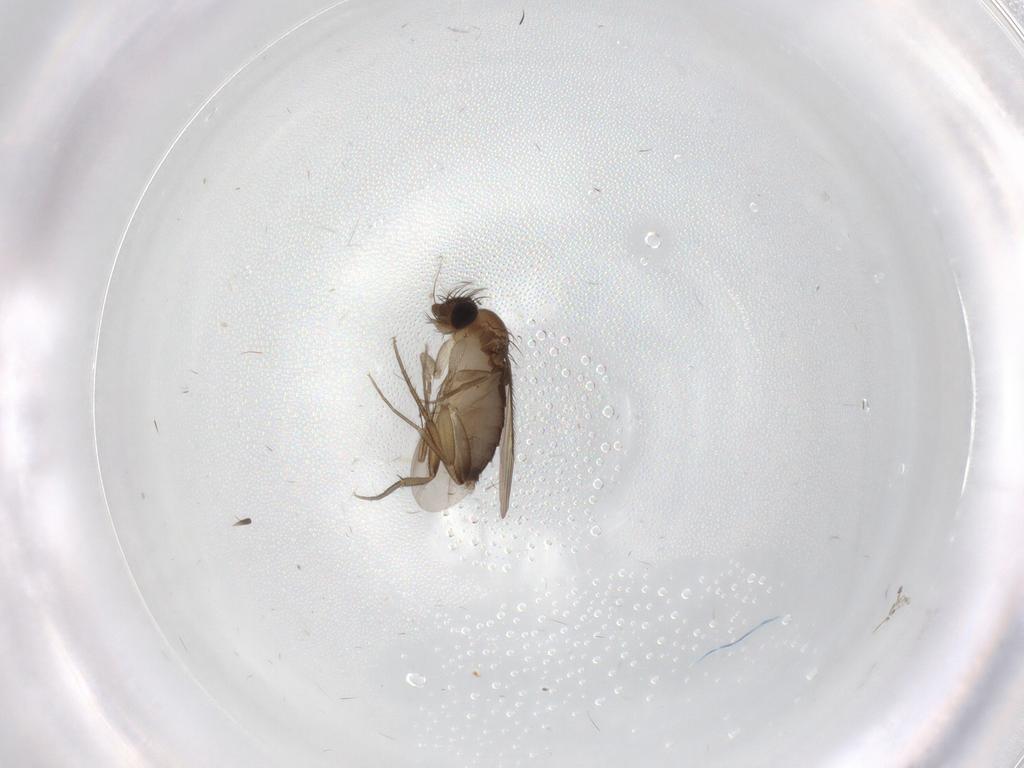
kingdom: Animalia
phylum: Arthropoda
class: Insecta
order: Diptera
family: Phoridae
